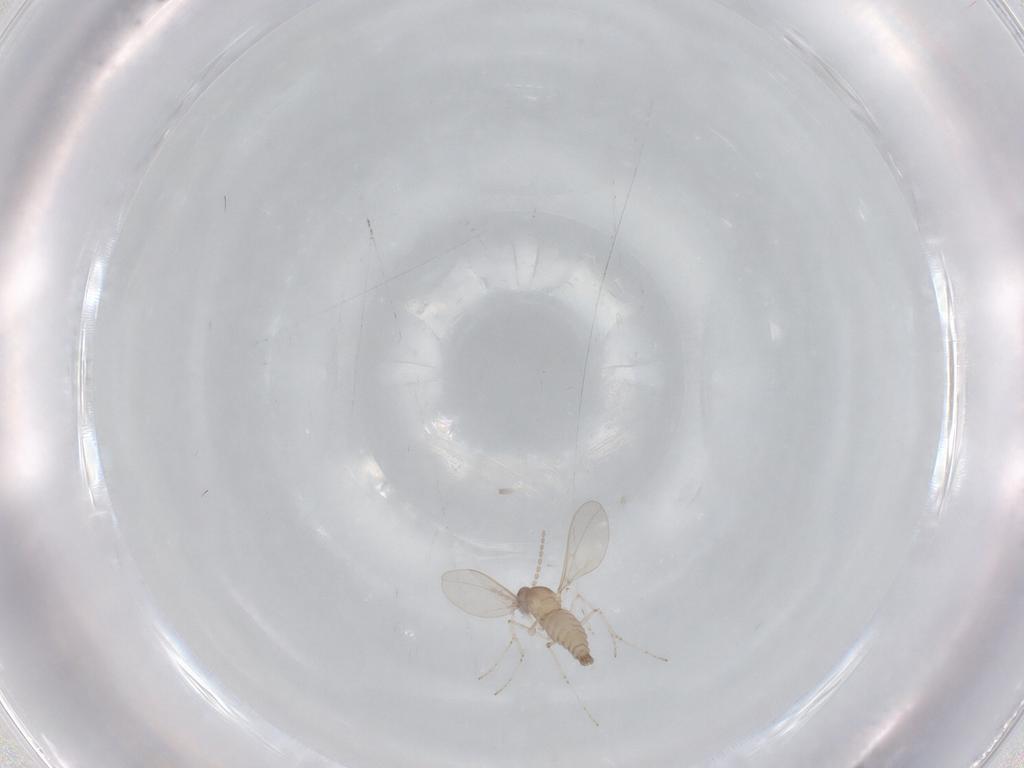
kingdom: Animalia
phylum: Arthropoda
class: Insecta
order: Diptera
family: Cecidomyiidae
